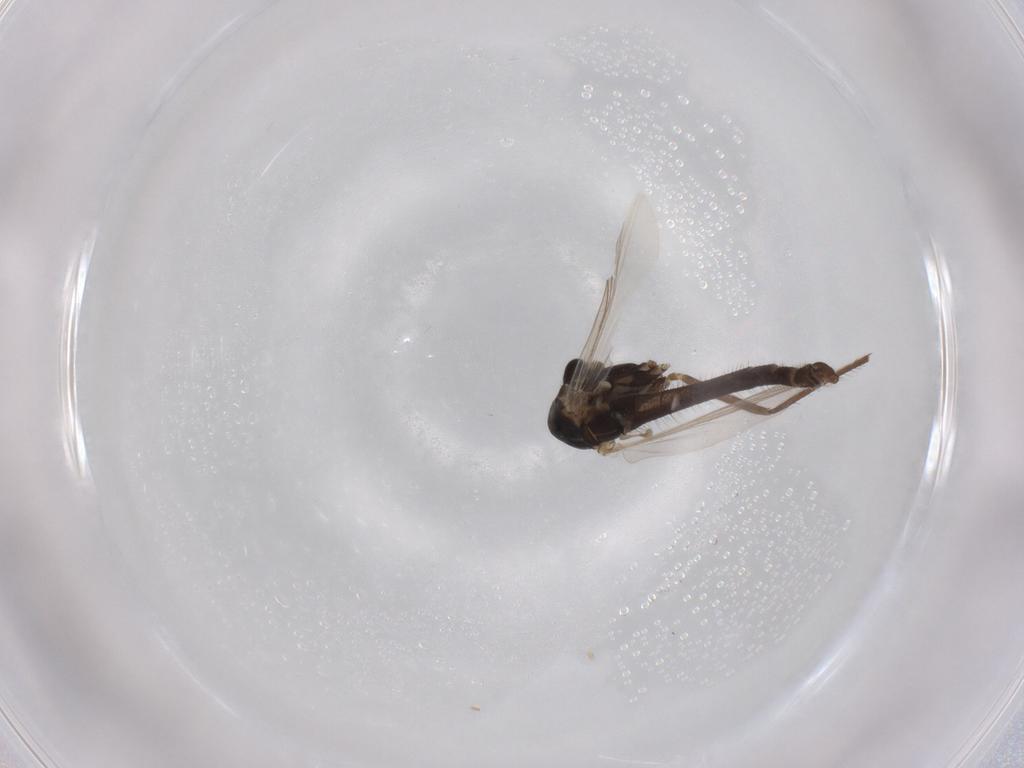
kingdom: Animalia
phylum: Arthropoda
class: Insecta
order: Diptera
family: Chironomidae
